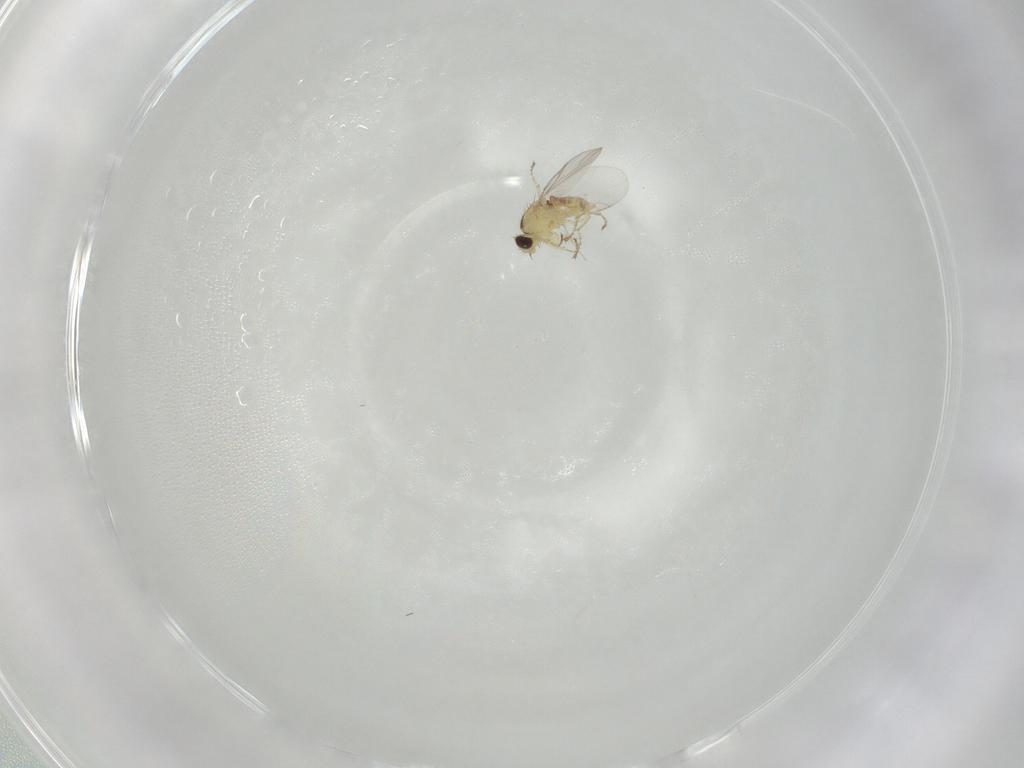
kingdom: Animalia
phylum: Arthropoda
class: Insecta
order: Diptera
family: Agromyzidae
